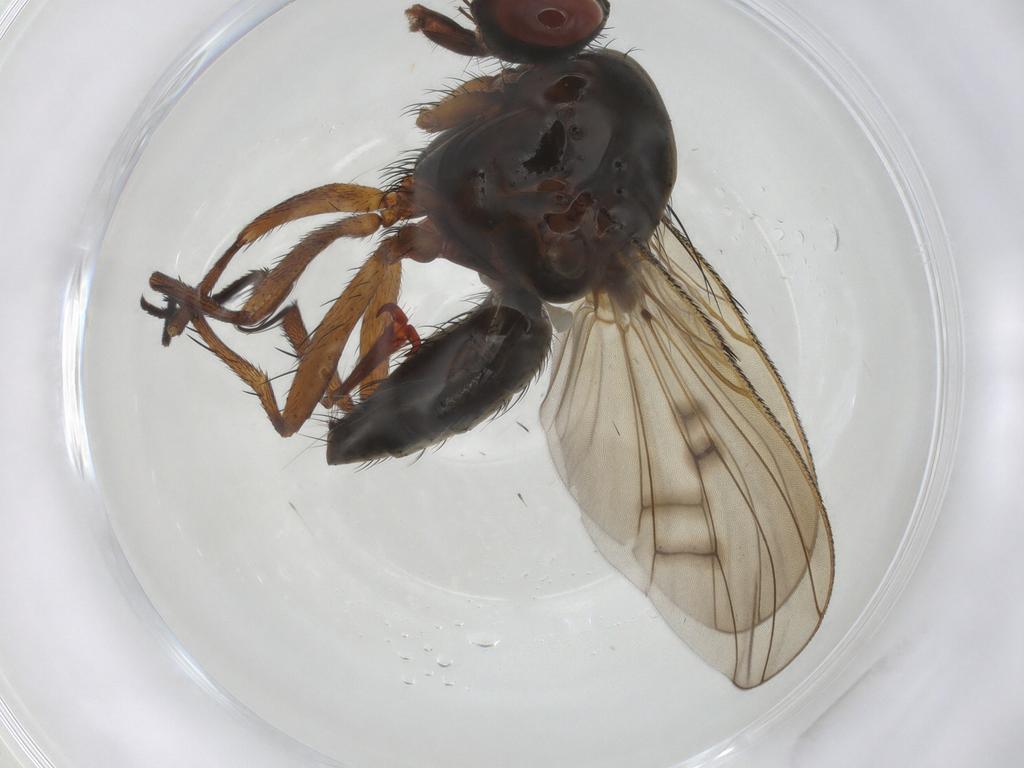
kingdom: Animalia
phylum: Arthropoda
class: Insecta
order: Diptera
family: Anthomyiidae
